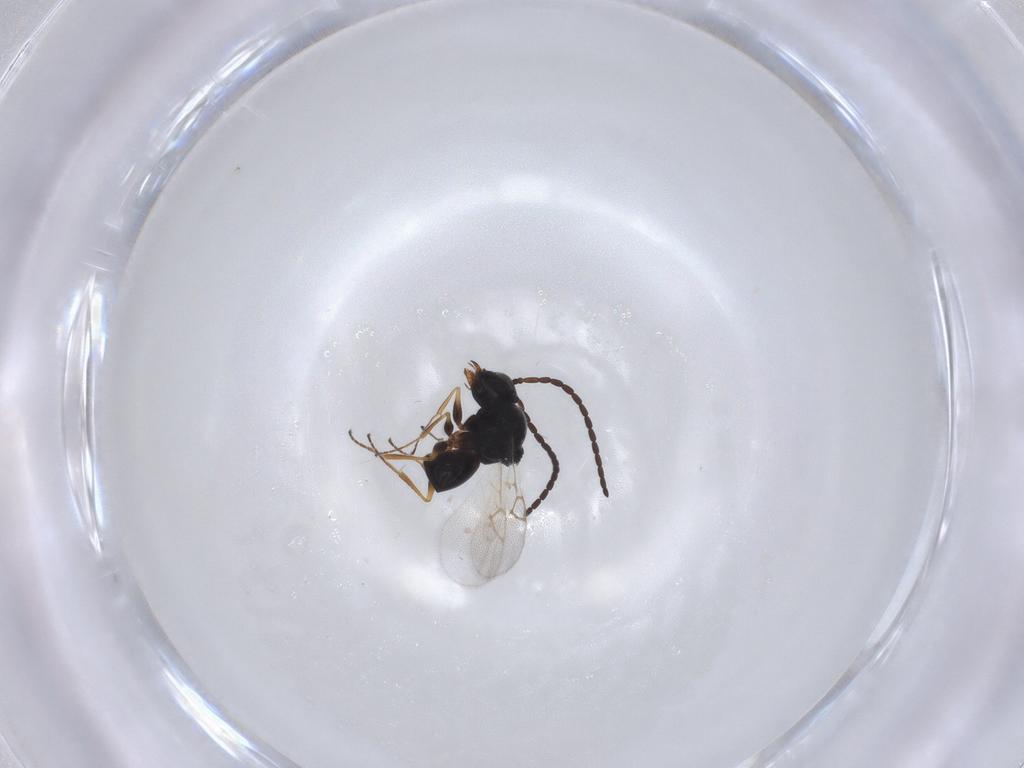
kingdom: Animalia
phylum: Arthropoda
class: Insecta
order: Hymenoptera
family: Figitidae
